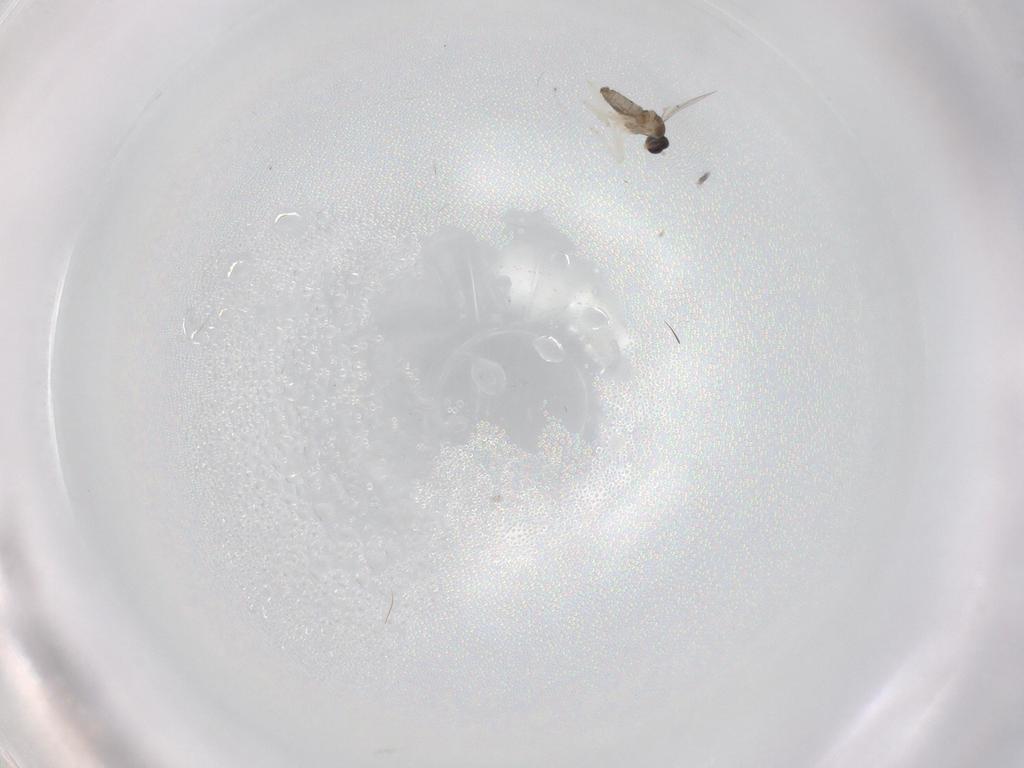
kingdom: Animalia
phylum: Arthropoda
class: Insecta
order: Diptera
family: Cecidomyiidae
